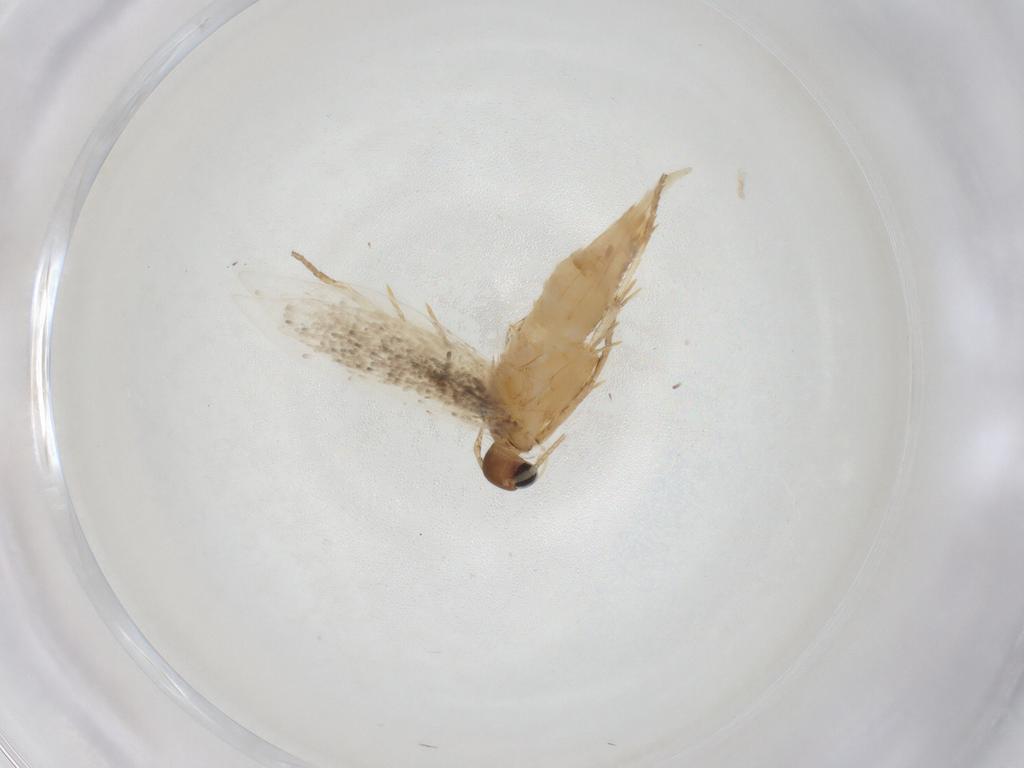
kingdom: Animalia
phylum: Arthropoda
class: Insecta
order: Lepidoptera
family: Gelechiidae
